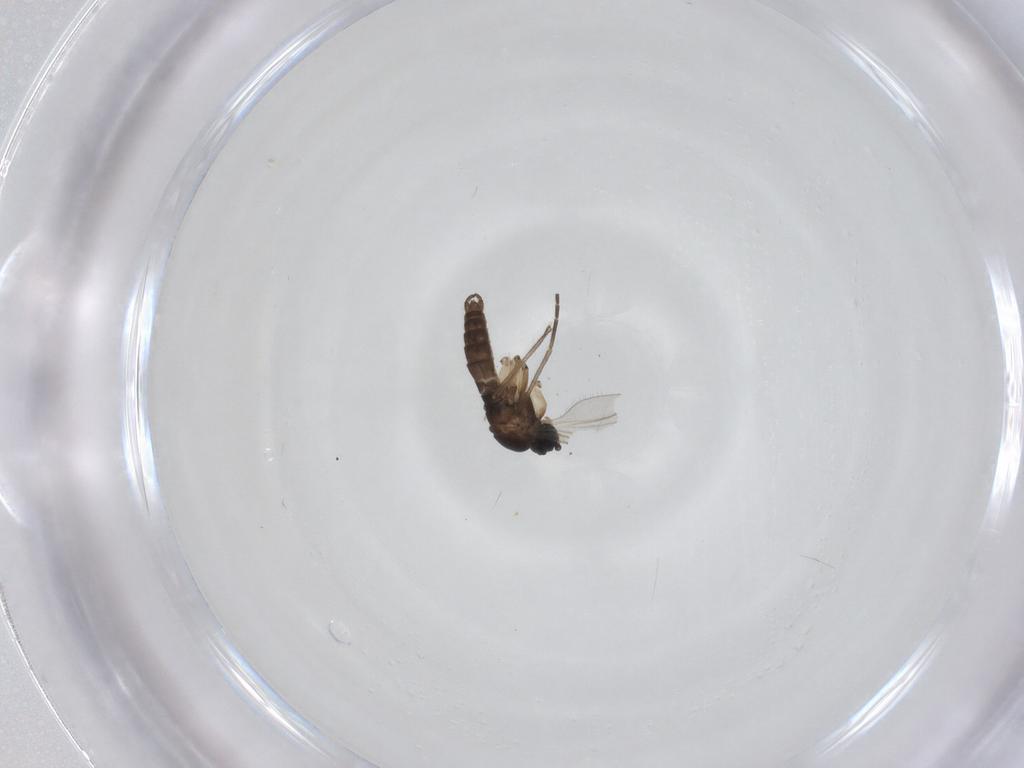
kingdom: Animalia
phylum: Arthropoda
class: Insecta
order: Diptera
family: Sciaridae
